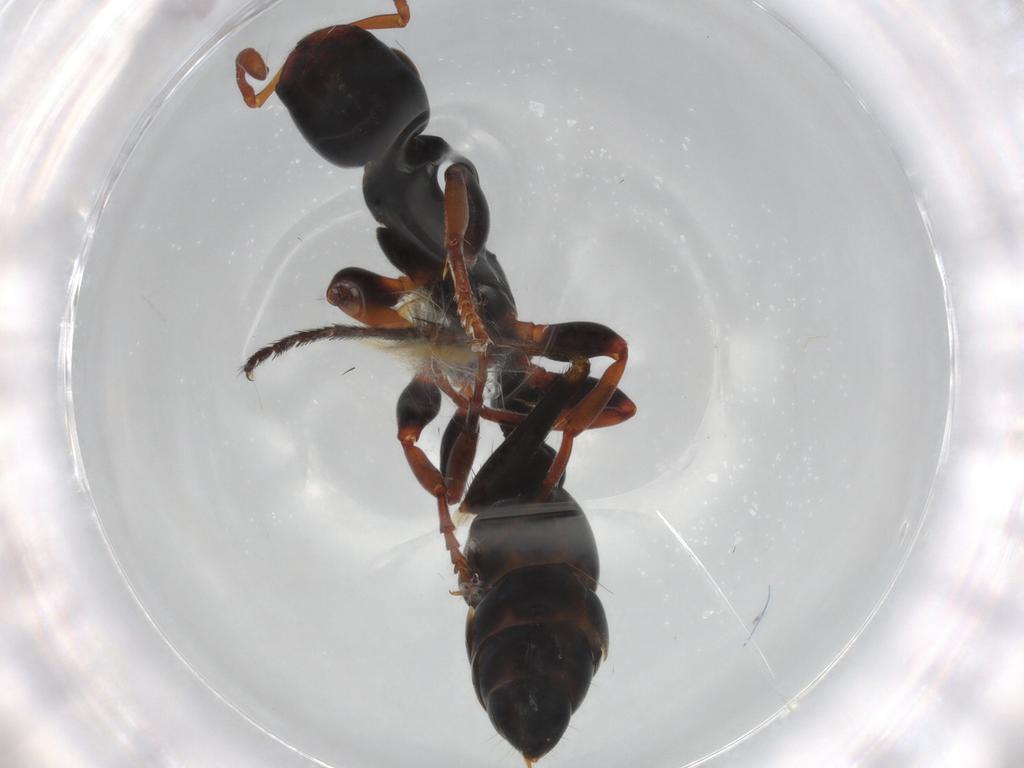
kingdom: Animalia
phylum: Arthropoda
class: Insecta
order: Hymenoptera
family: Formicidae
